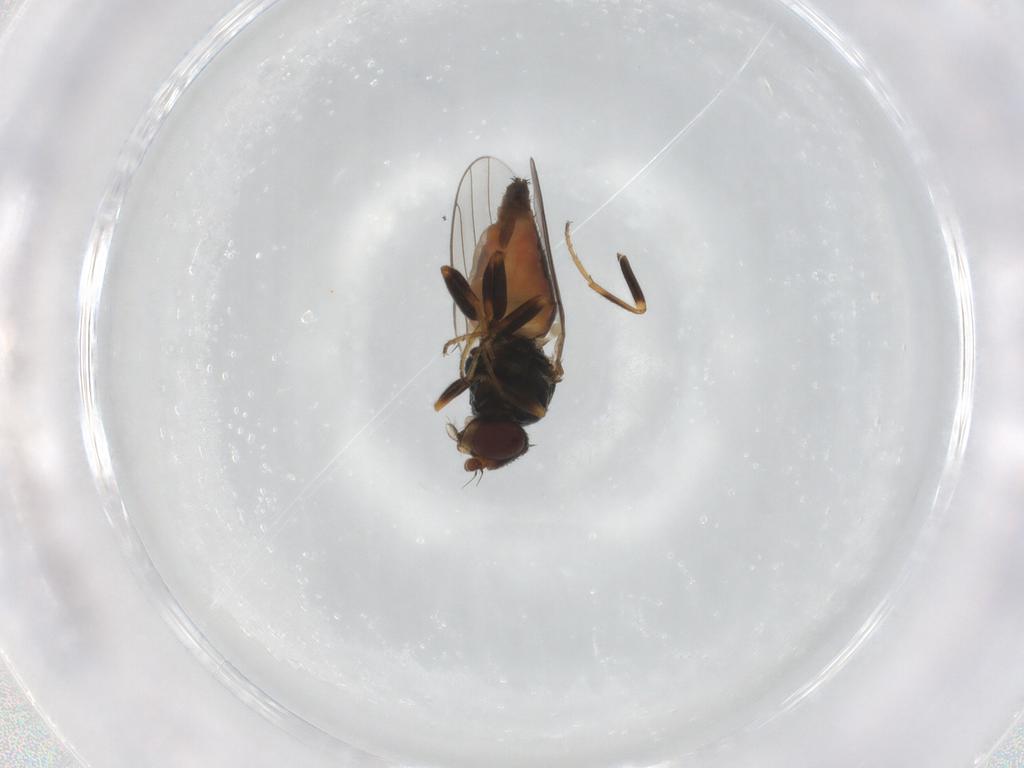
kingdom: Animalia
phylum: Arthropoda
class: Insecta
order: Diptera
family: Chloropidae
